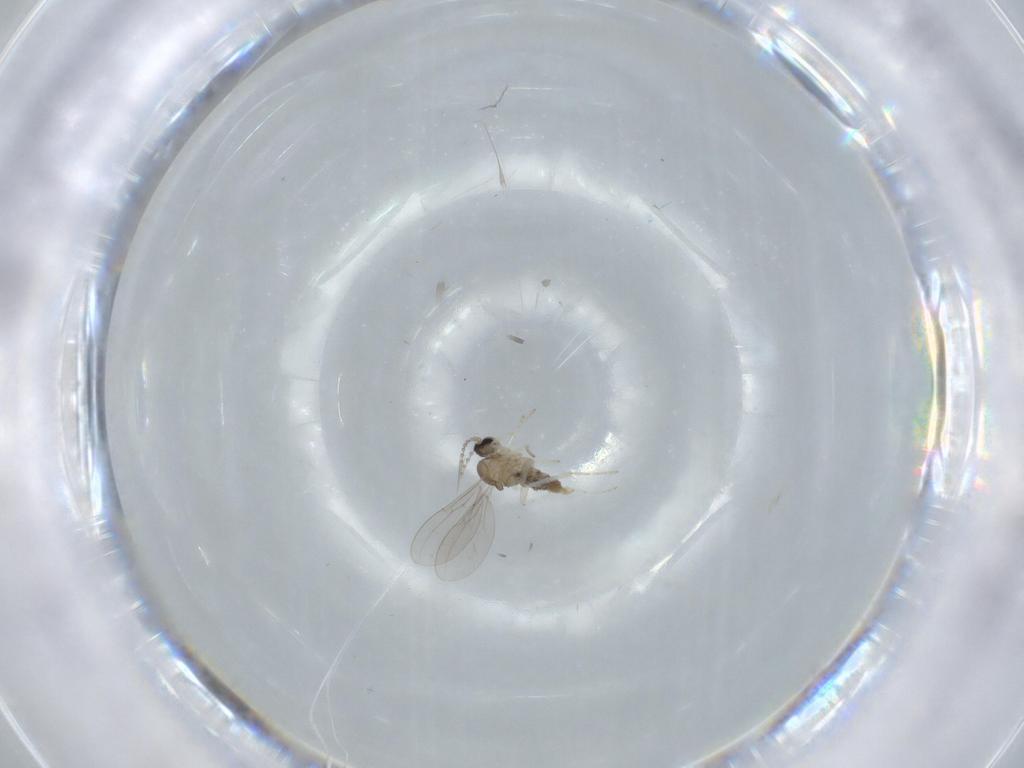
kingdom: Animalia
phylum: Arthropoda
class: Insecta
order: Diptera
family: Cecidomyiidae
